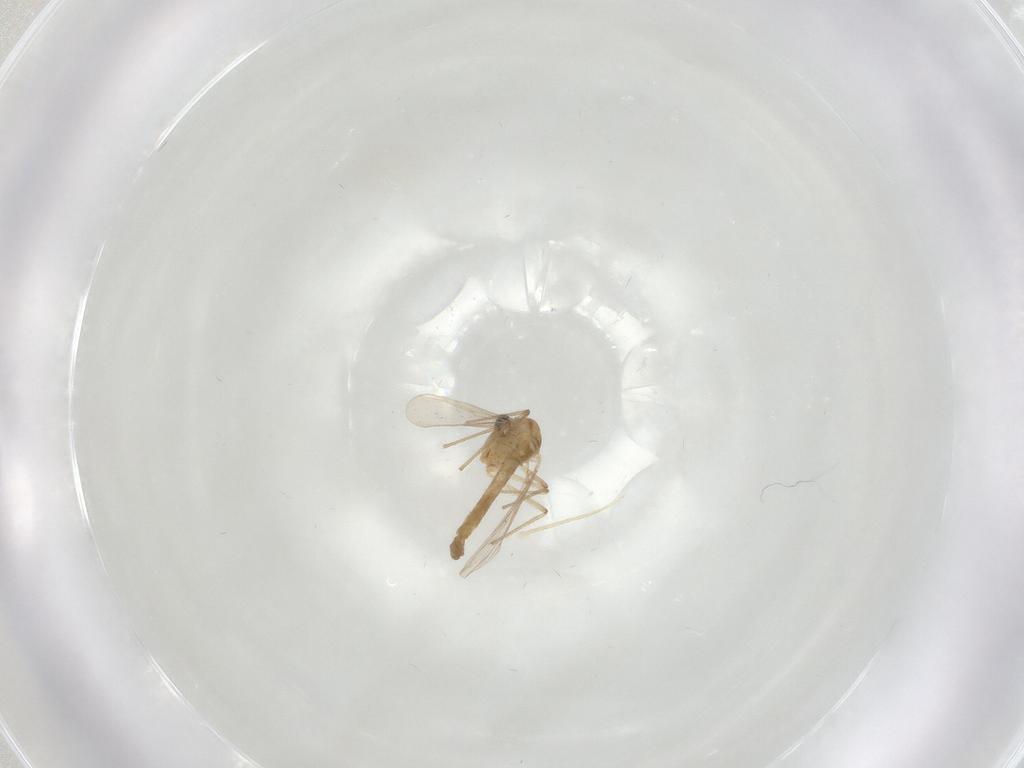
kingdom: Animalia
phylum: Arthropoda
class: Insecta
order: Diptera
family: Chironomidae
